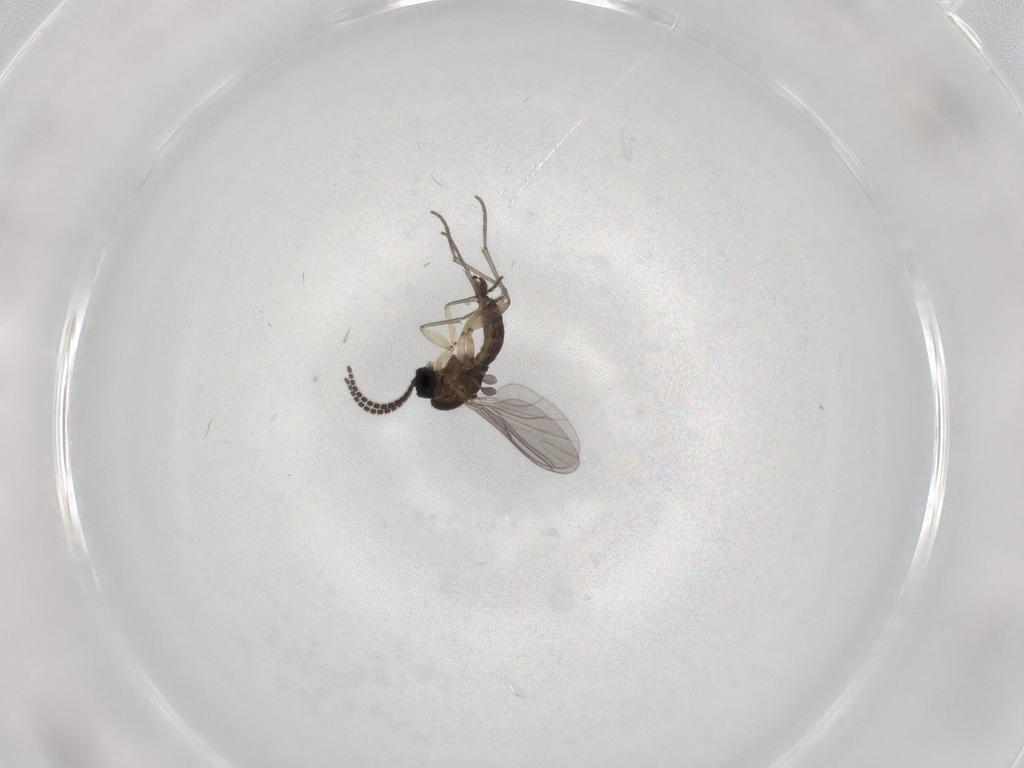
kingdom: Animalia
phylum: Arthropoda
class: Insecta
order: Diptera
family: Sciaridae
